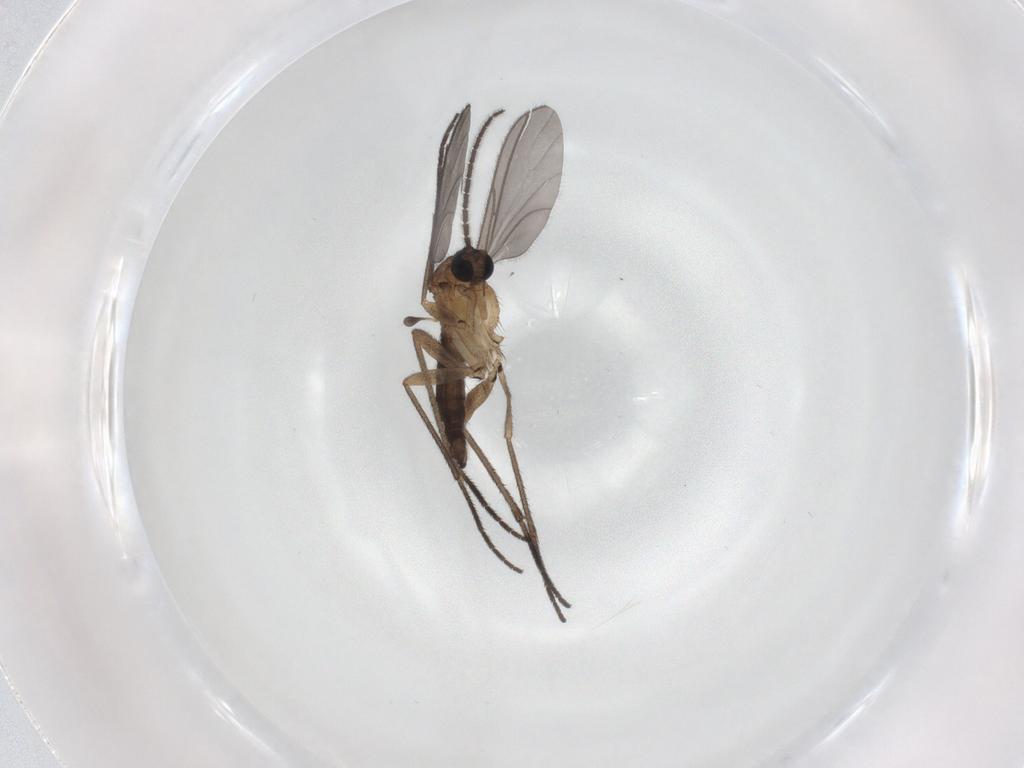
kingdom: Animalia
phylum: Arthropoda
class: Insecta
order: Diptera
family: Sciaridae
